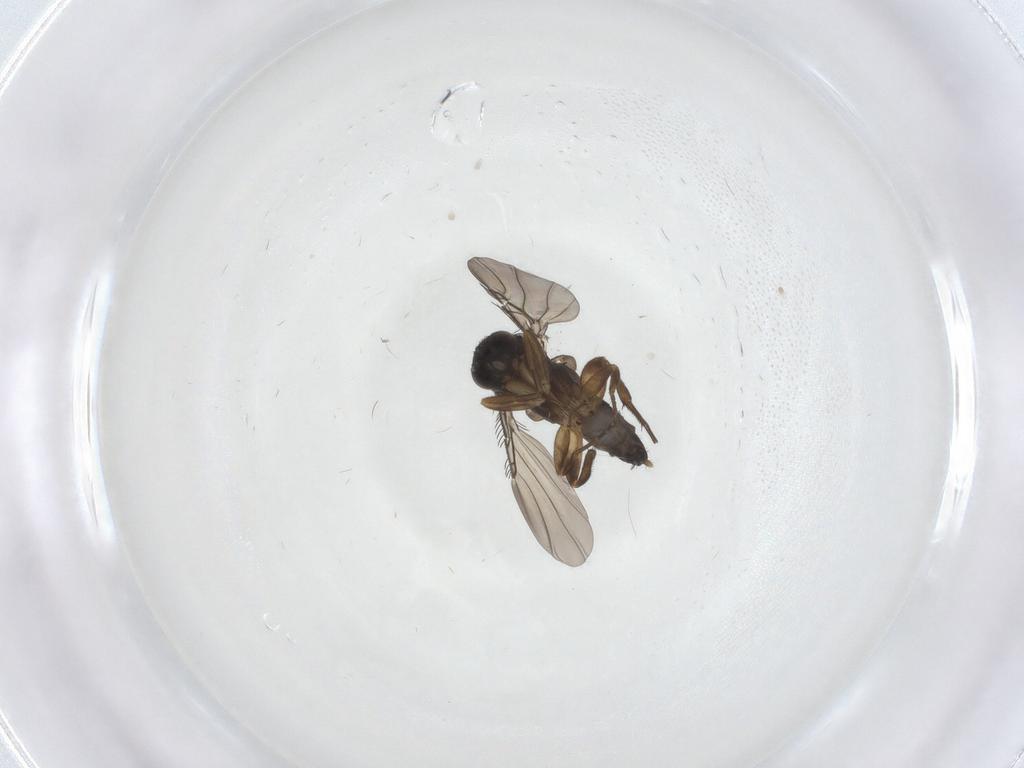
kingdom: Animalia
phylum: Arthropoda
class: Insecta
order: Diptera
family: Phoridae
